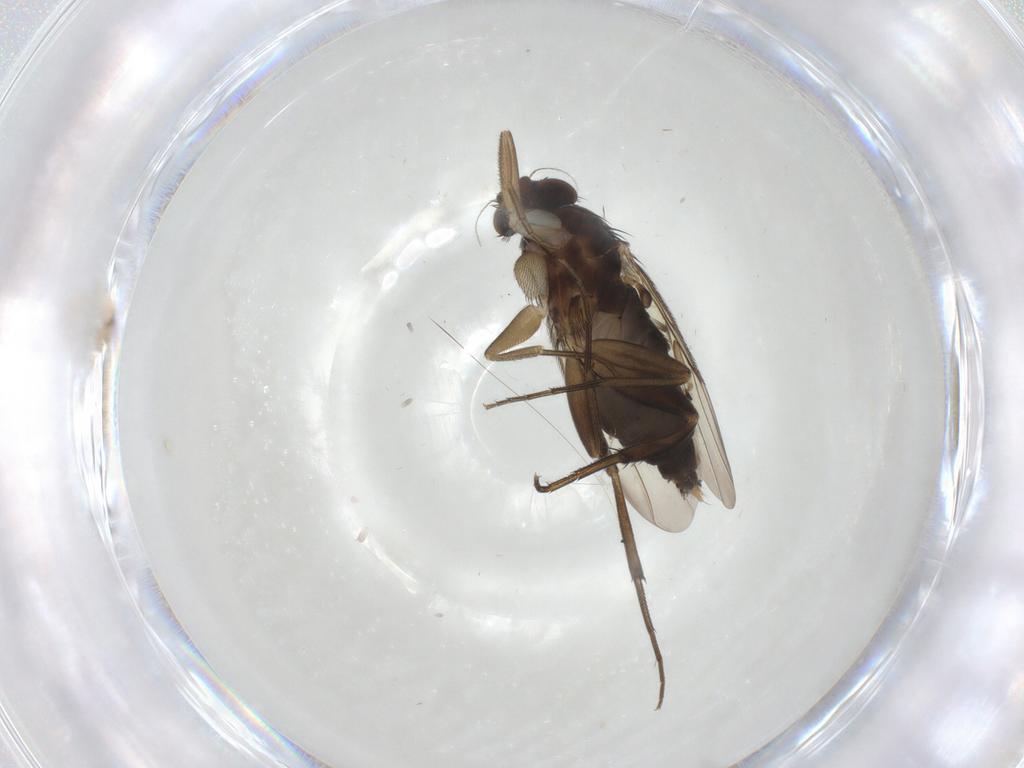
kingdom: Animalia
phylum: Arthropoda
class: Insecta
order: Diptera
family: Phoridae
